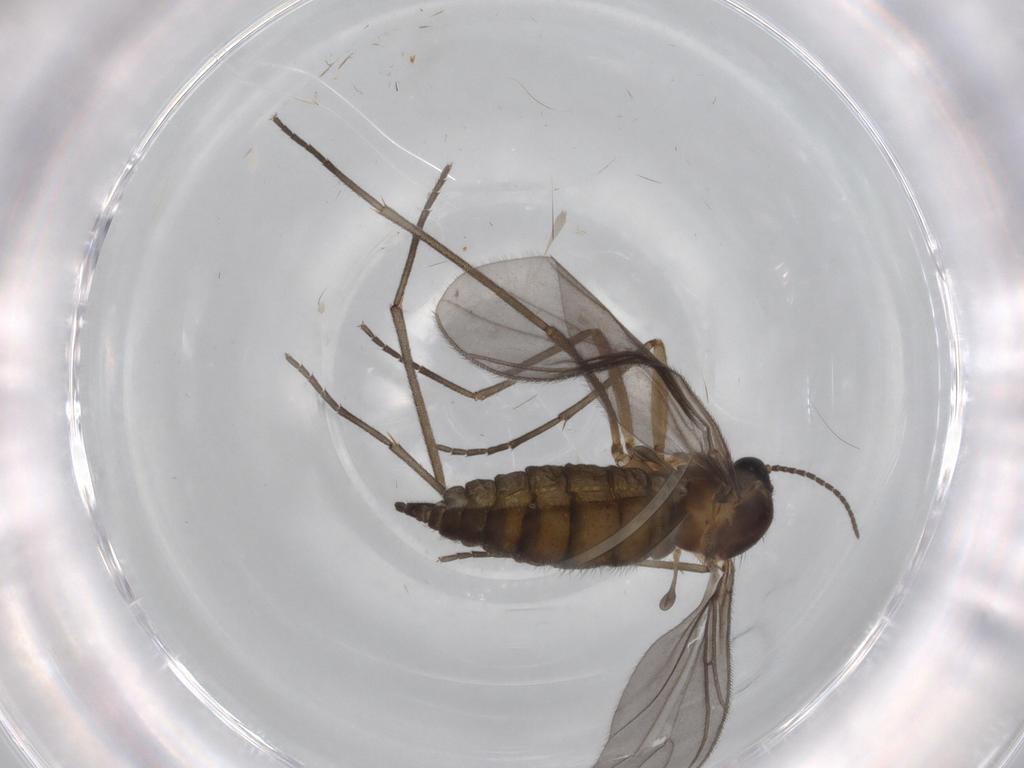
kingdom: Animalia
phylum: Arthropoda
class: Insecta
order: Diptera
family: Sciaridae
